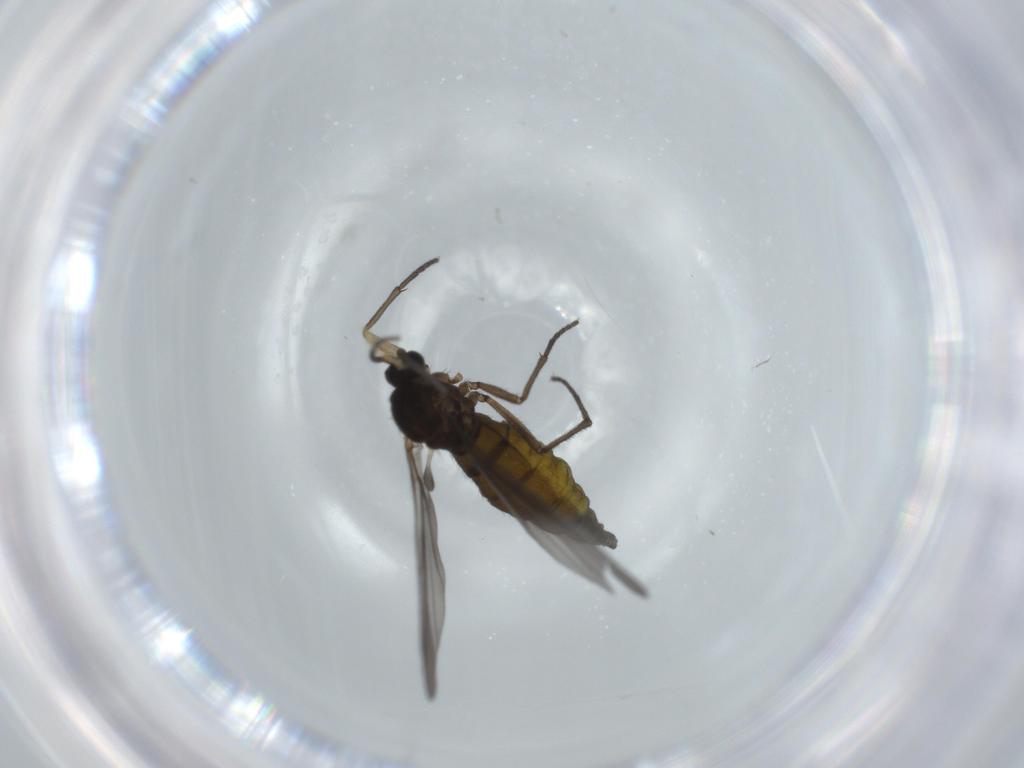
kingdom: Animalia
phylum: Arthropoda
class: Insecta
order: Diptera
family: Sciaridae
